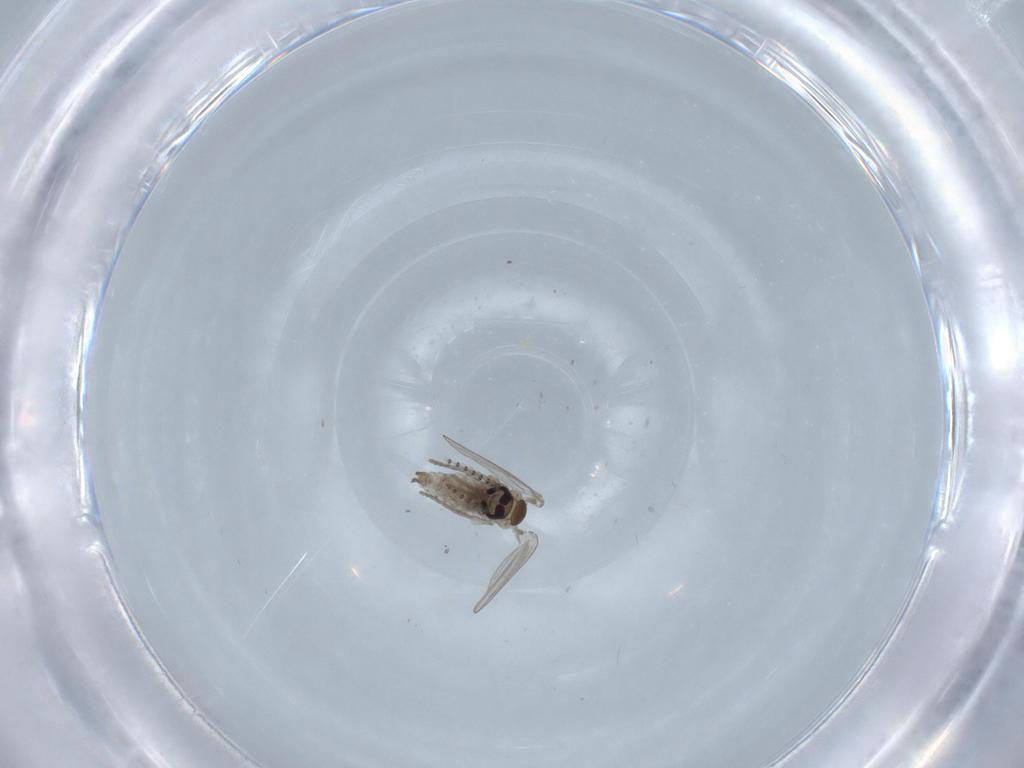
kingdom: Animalia
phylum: Arthropoda
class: Insecta
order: Diptera
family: Psychodidae
